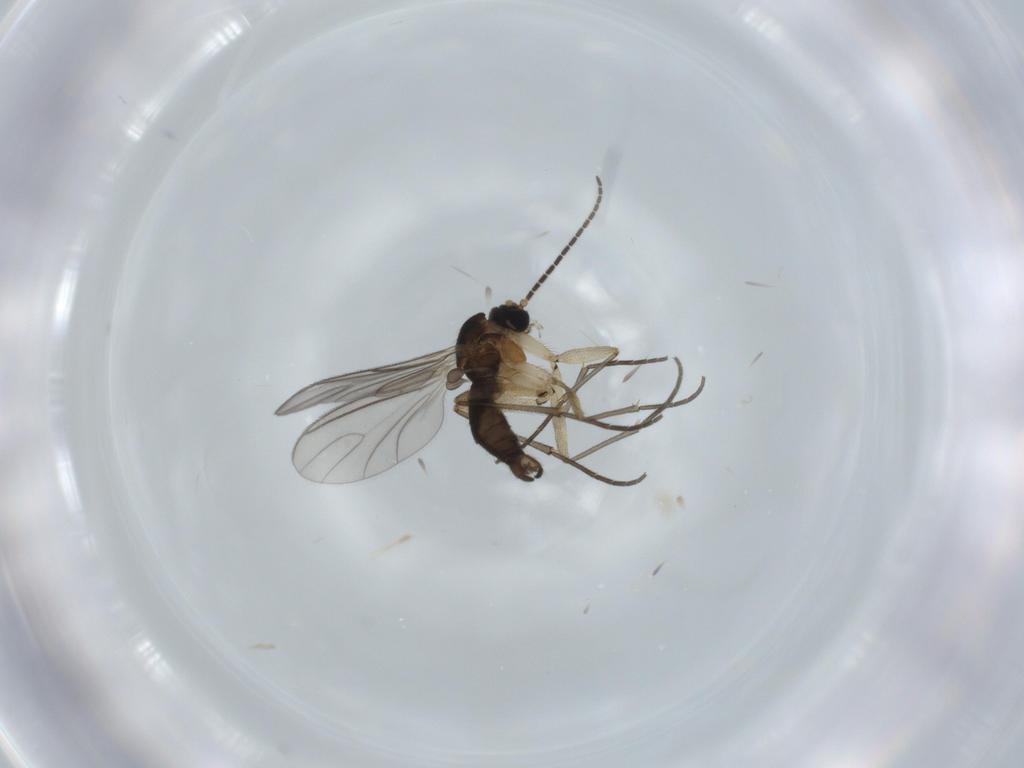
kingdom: Animalia
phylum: Arthropoda
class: Insecta
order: Diptera
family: Sciaridae
